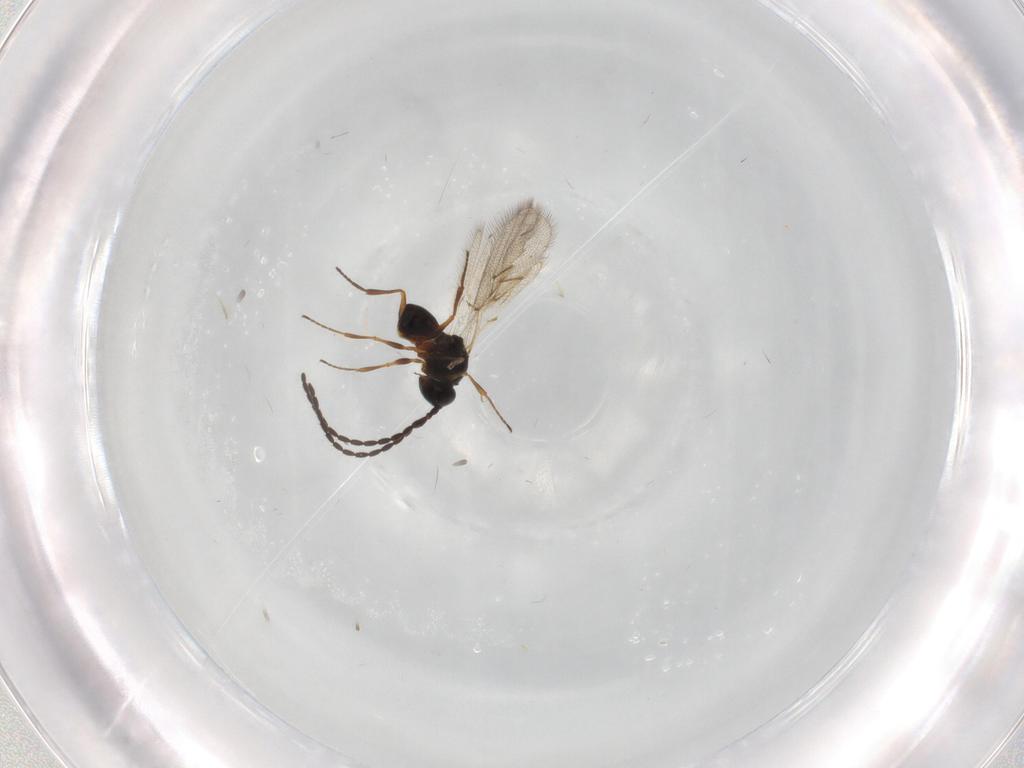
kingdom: Animalia
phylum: Arthropoda
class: Insecta
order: Hymenoptera
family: Figitidae
